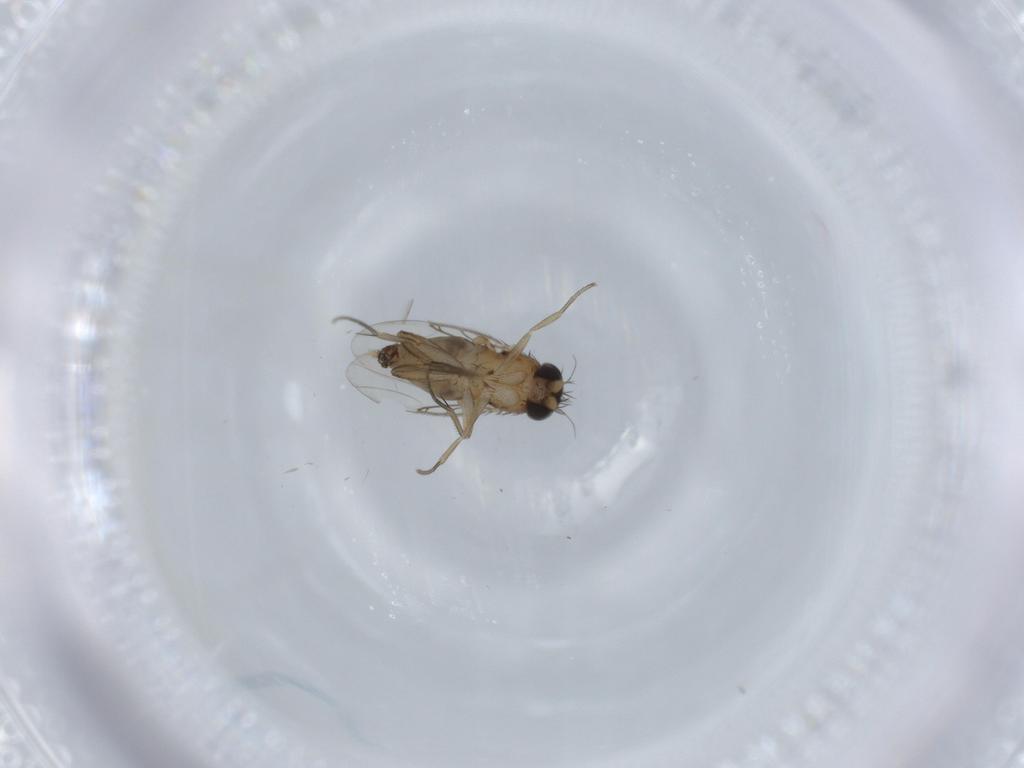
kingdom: Animalia
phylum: Arthropoda
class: Insecta
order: Diptera
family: Phoridae
